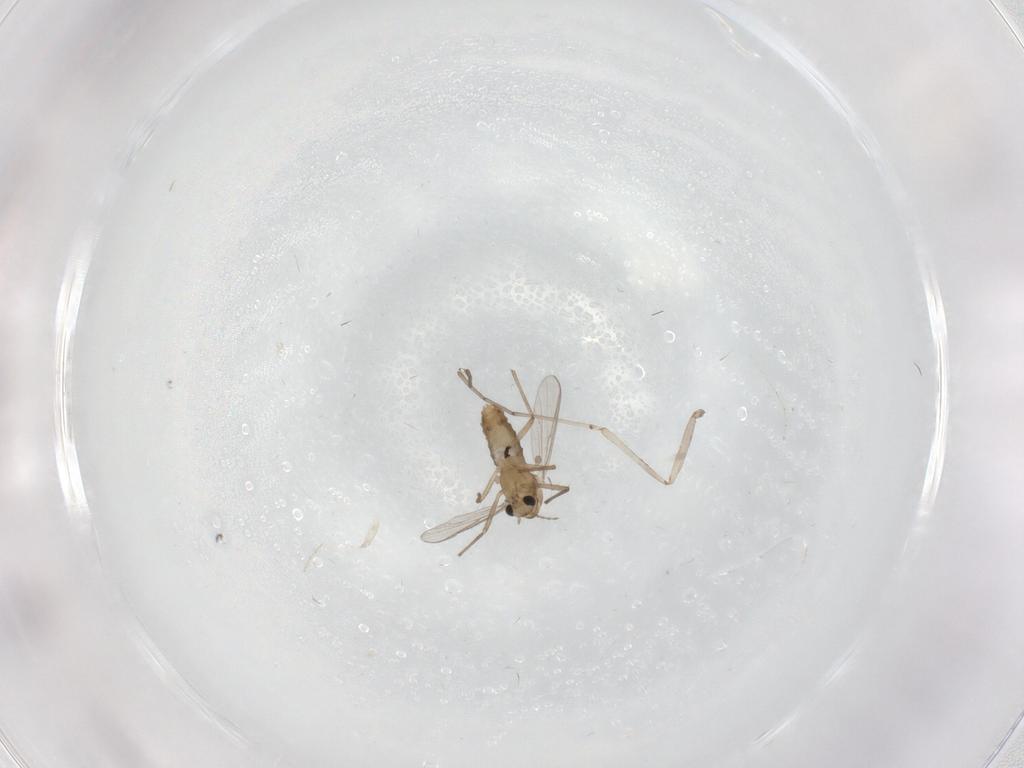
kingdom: Animalia
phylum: Arthropoda
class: Insecta
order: Diptera
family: Chironomidae
